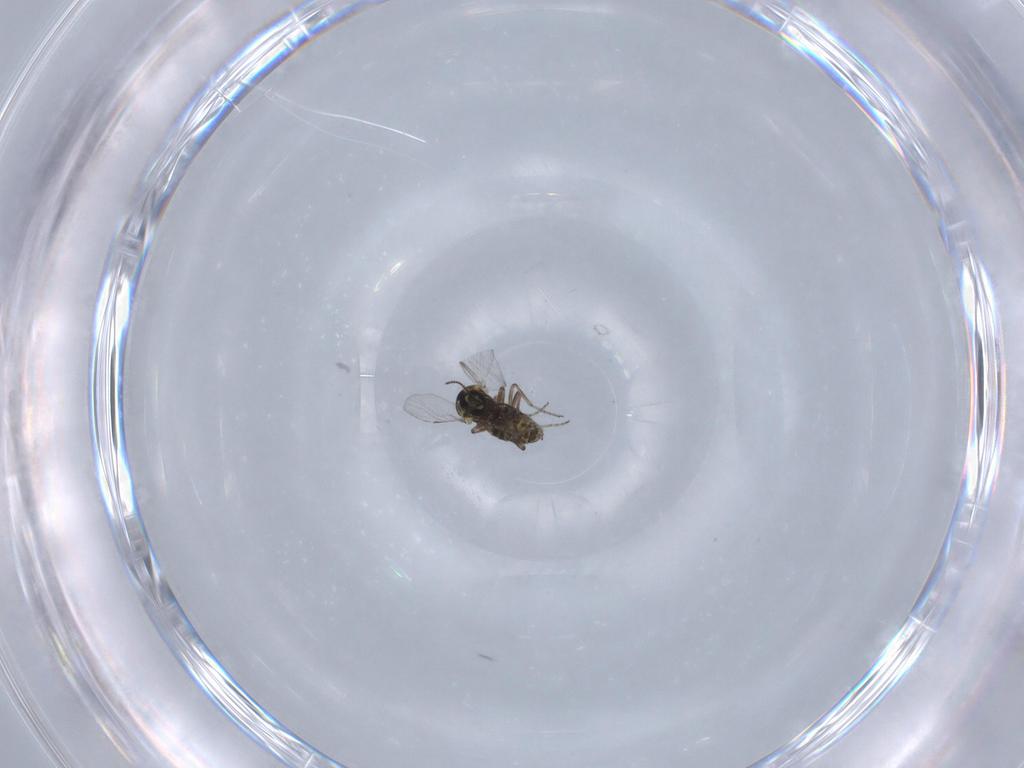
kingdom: Animalia
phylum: Arthropoda
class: Insecta
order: Diptera
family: Ceratopogonidae
